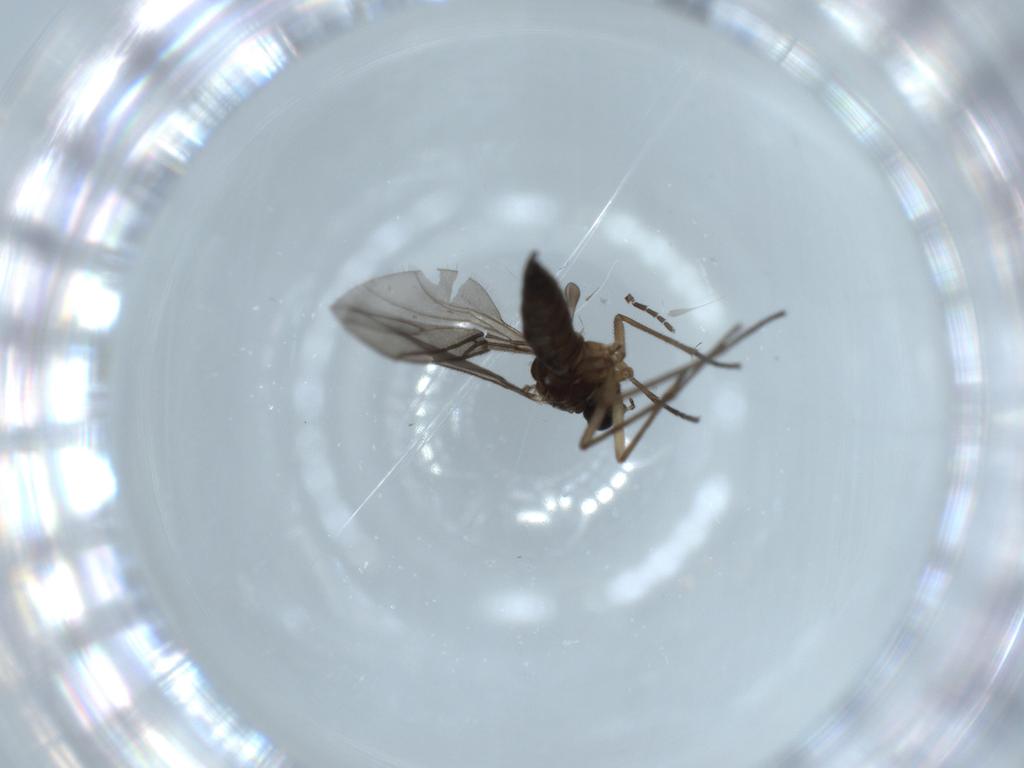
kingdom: Animalia
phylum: Arthropoda
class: Insecta
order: Diptera
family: Sciaridae
